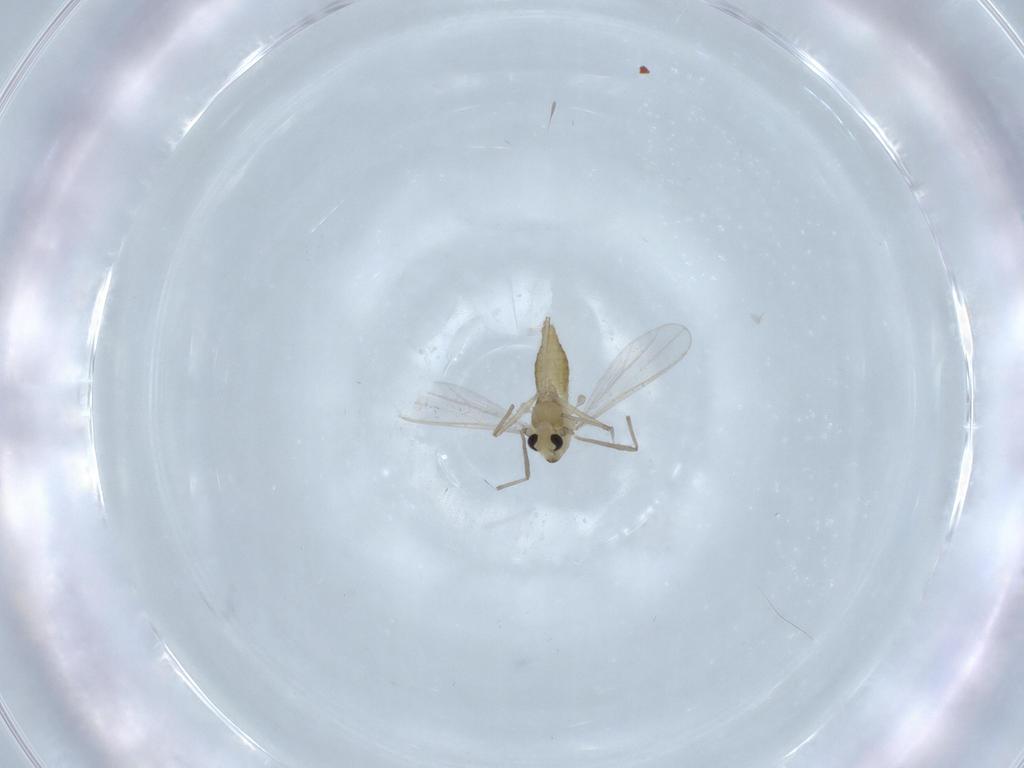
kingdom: Animalia
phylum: Arthropoda
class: Insecta
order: Diptera
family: Chironomidae
